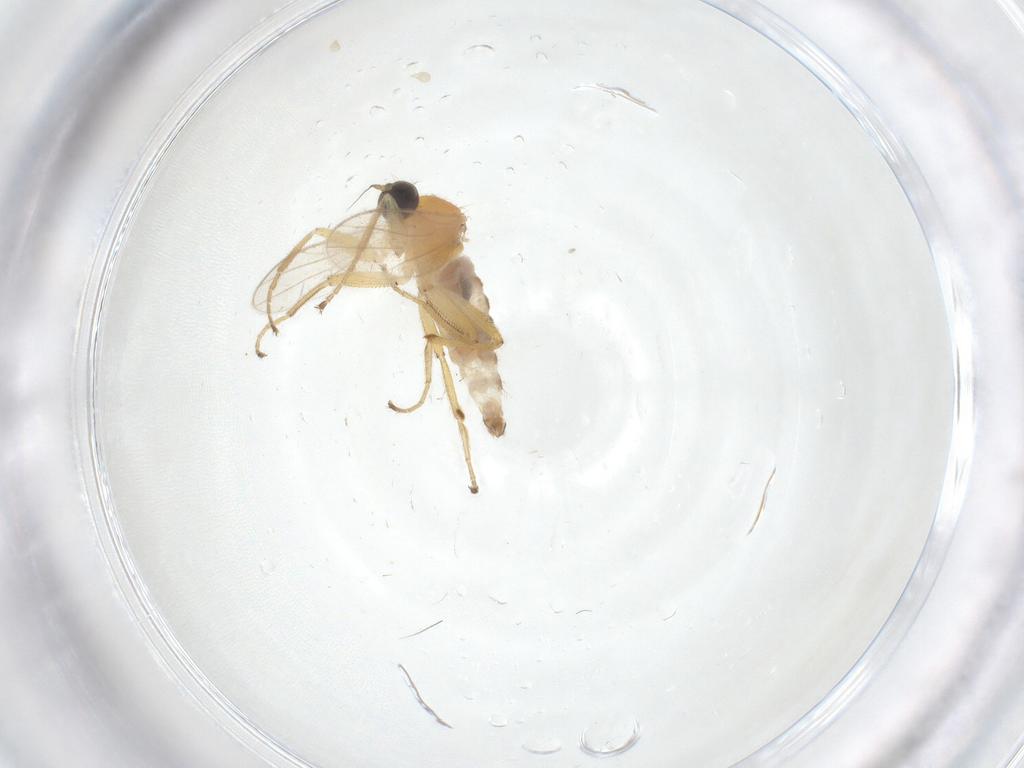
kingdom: Animalia
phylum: Arthropoda
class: Insecta
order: Diptera
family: Hybotidae
